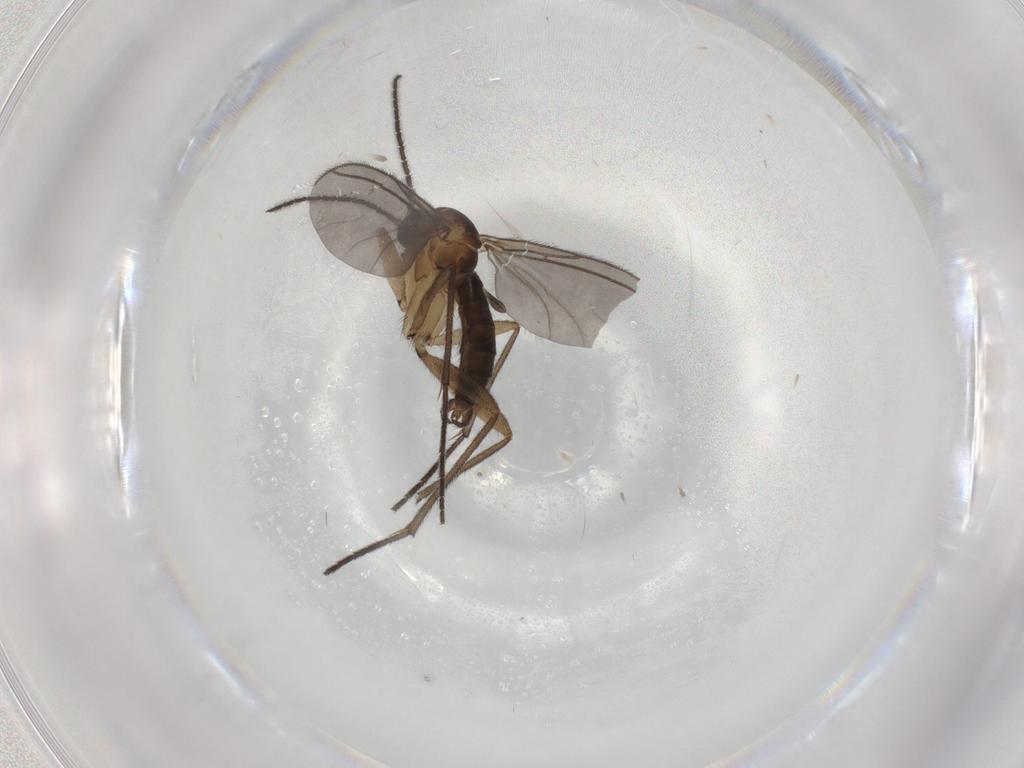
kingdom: Animalia
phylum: Arthropoda
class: Insecta
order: Diptera
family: Sciaridae
